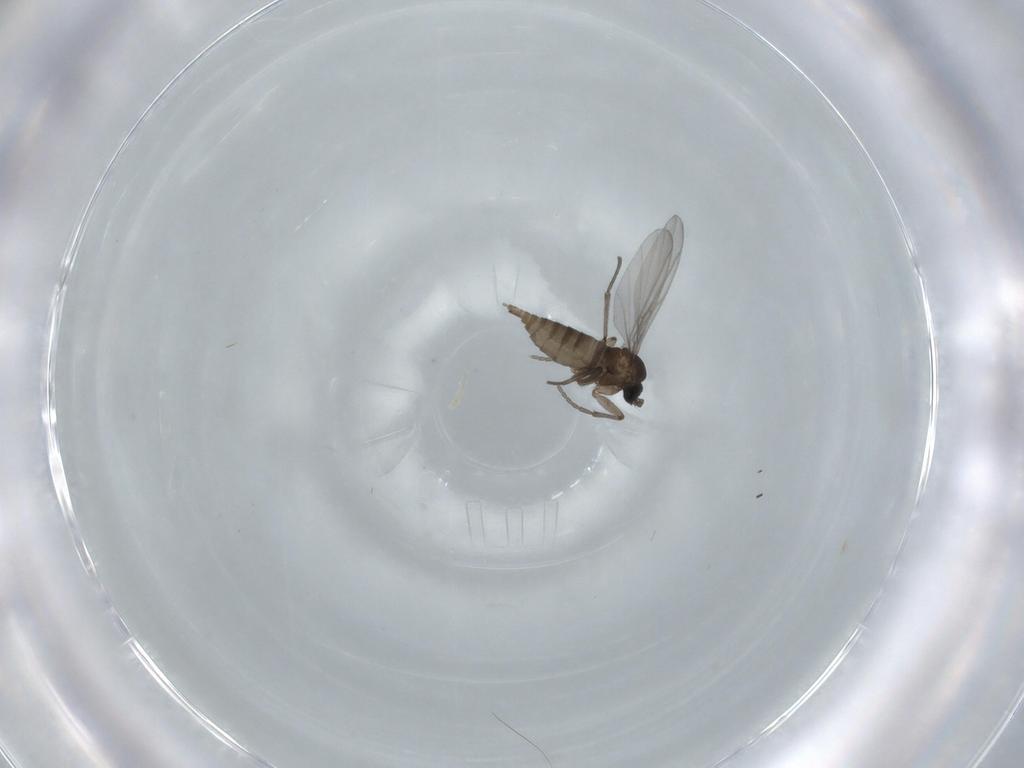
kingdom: Animalia
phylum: Arthropoda
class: Insecta
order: Diptera
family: Sciaridae
